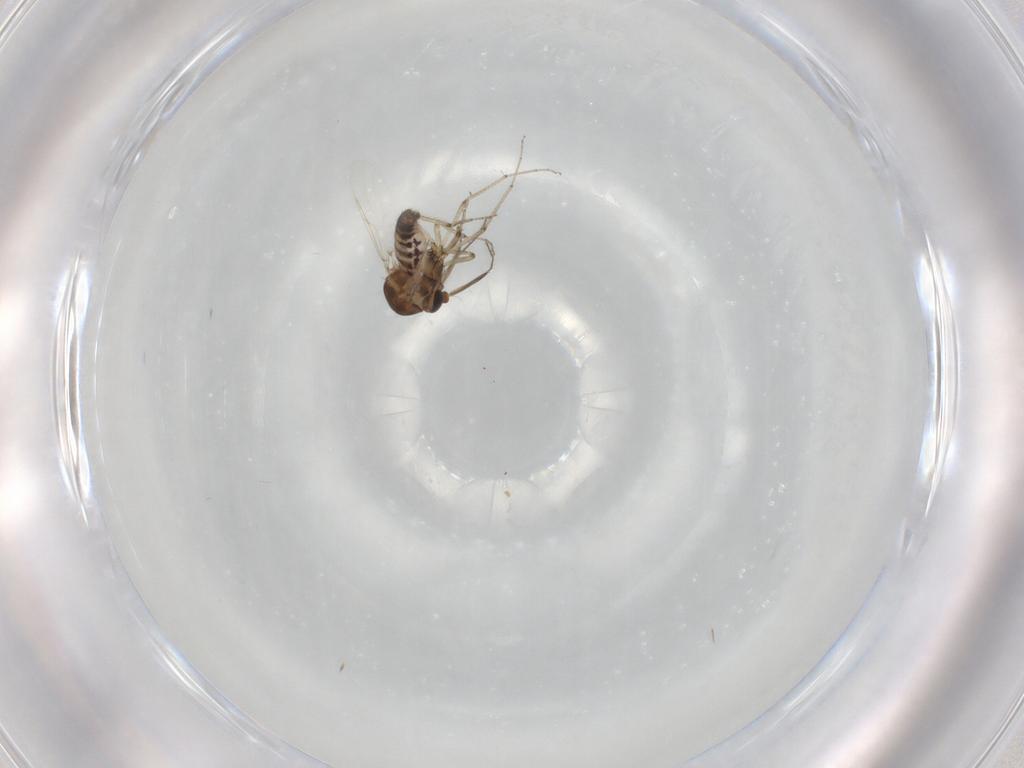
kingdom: Animalia
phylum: Arthropoda
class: Insecta
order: Diptera
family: Ceratopogonidae
